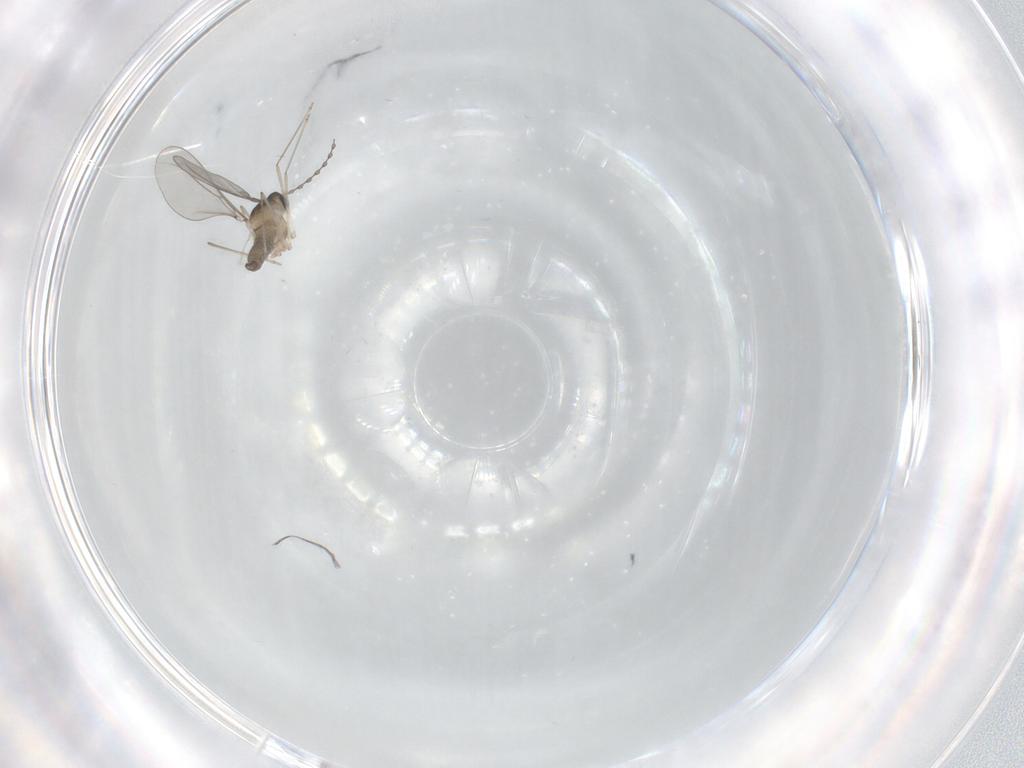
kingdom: Animalia
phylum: Arthropoda
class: Insecta
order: Diptera
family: Cecidomyiidae
